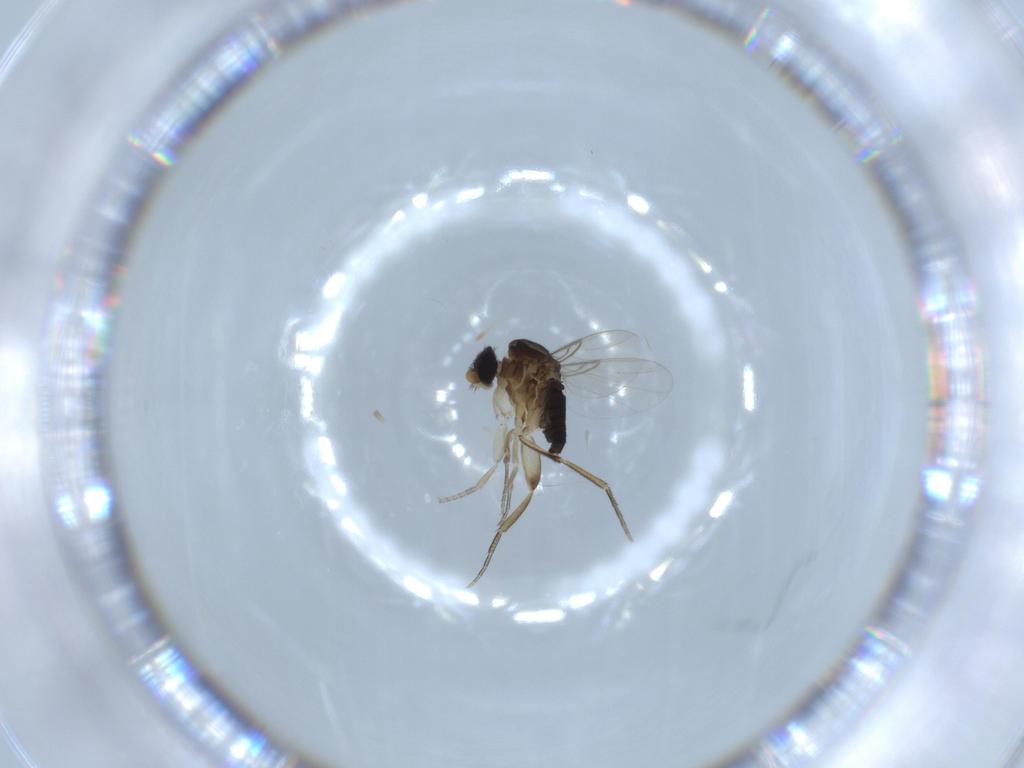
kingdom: Animalia
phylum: Arthropoda
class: Insecta
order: Diptera
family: Phoridae
